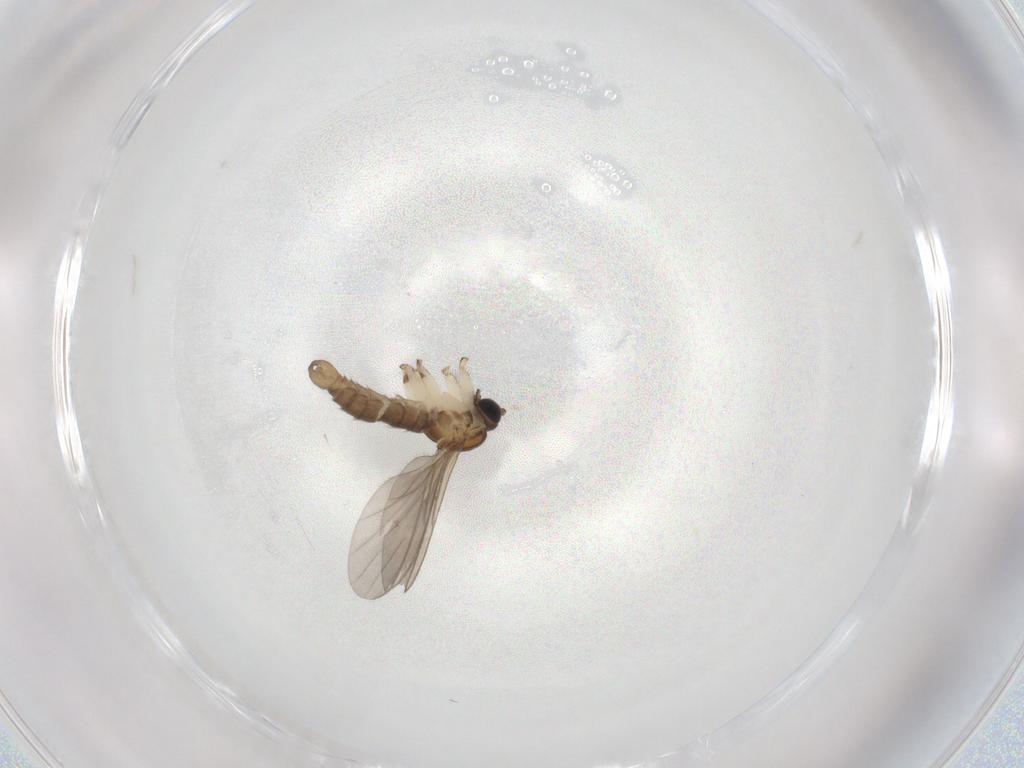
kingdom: Animalia
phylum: Arthropoda
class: Insecta
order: Diptera
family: Sciaridae
